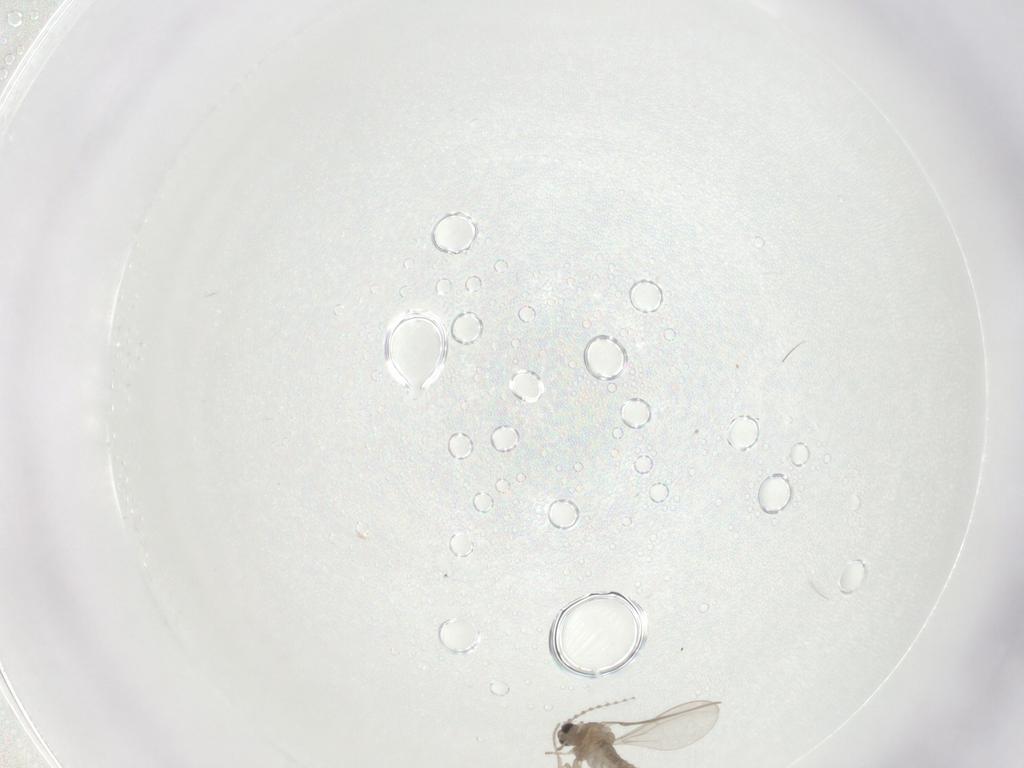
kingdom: Animalia
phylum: Arthropoda
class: Insecta
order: Diptera
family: Cecidomyiidae
